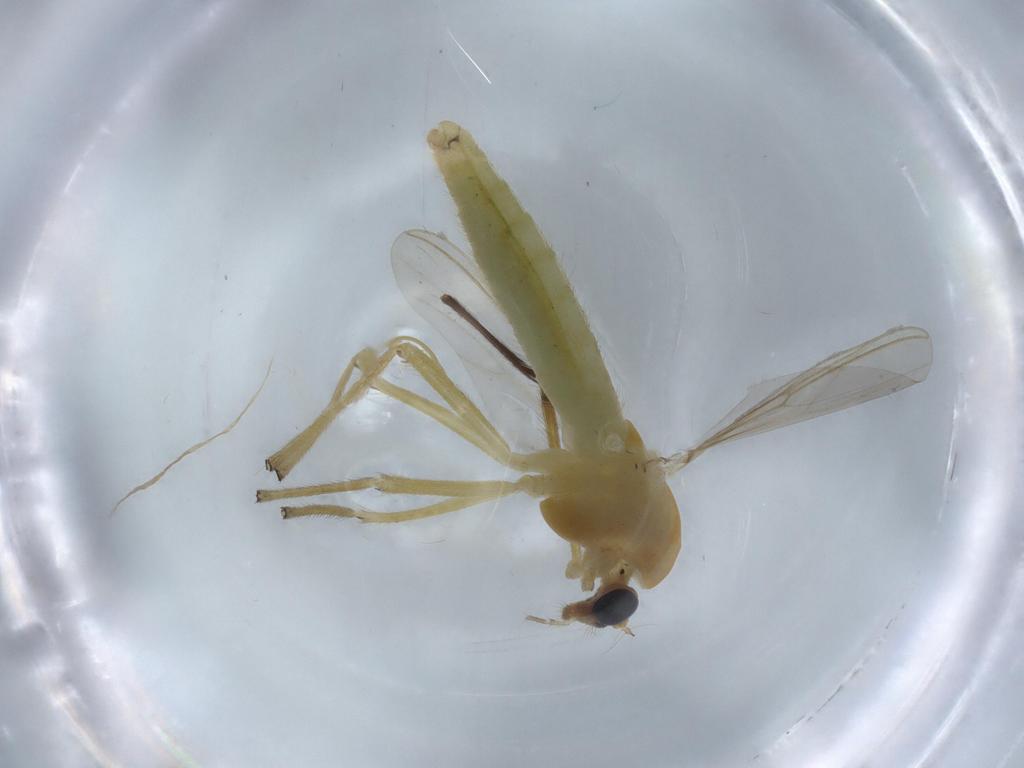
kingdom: Animalia
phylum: Arthropoda
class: Insecta
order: Diptera
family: Chironomidae
